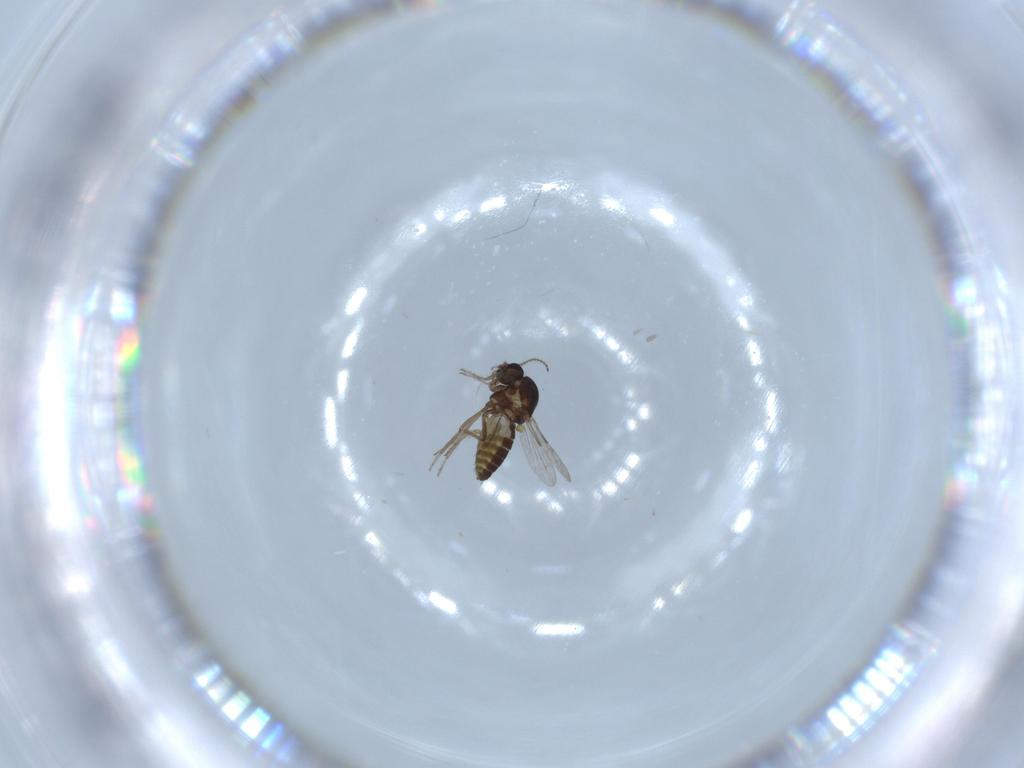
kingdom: Animalia
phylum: Arthropoda
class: Insecta
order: Diptera
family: Ceratopogonidae
